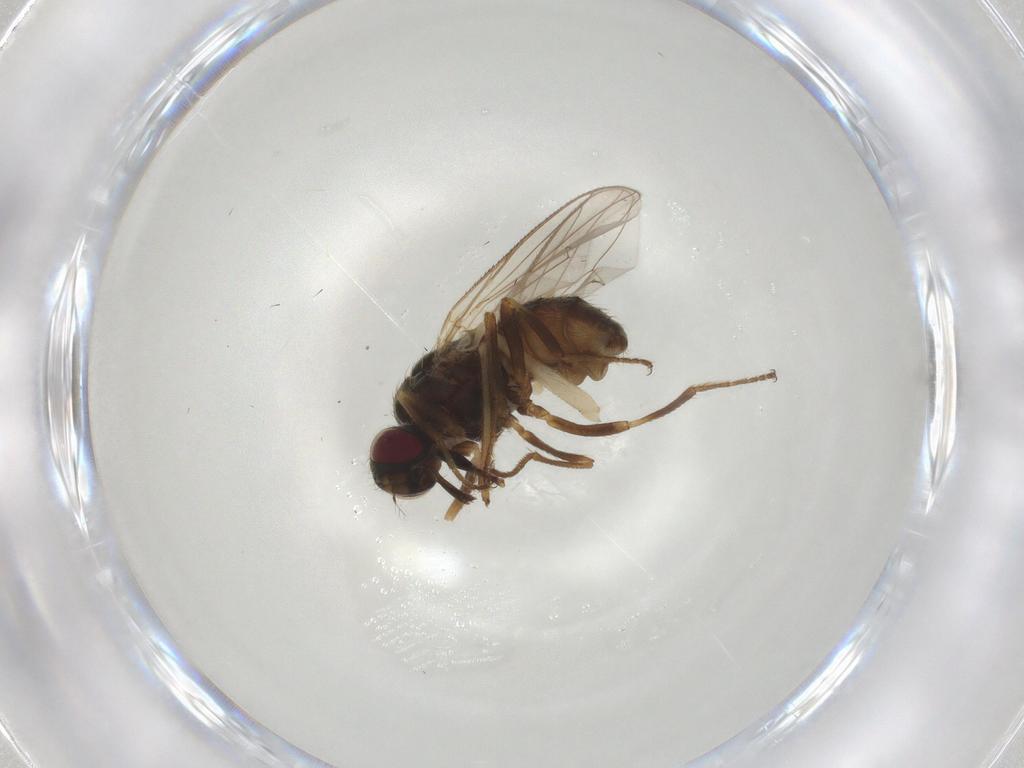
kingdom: Animalia
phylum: Arthropoda
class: Insecta
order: Diptera
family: Muscidae
